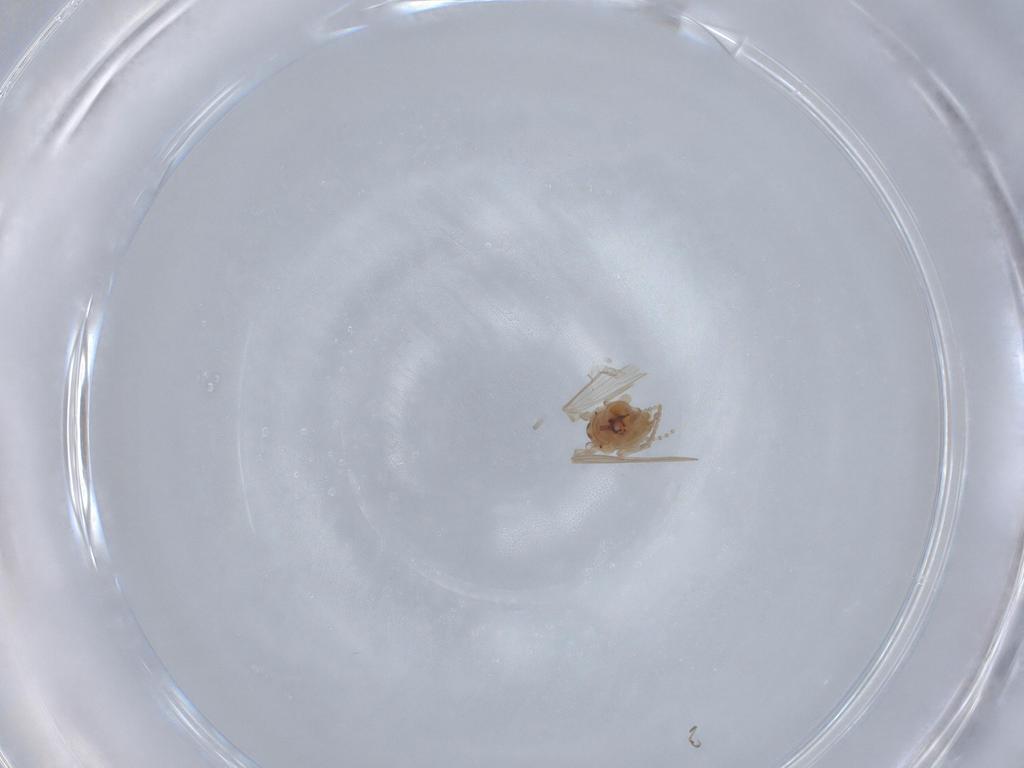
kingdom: Animalia
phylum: Arthropoda
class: Insecta
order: Diptera
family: Psychodidae
